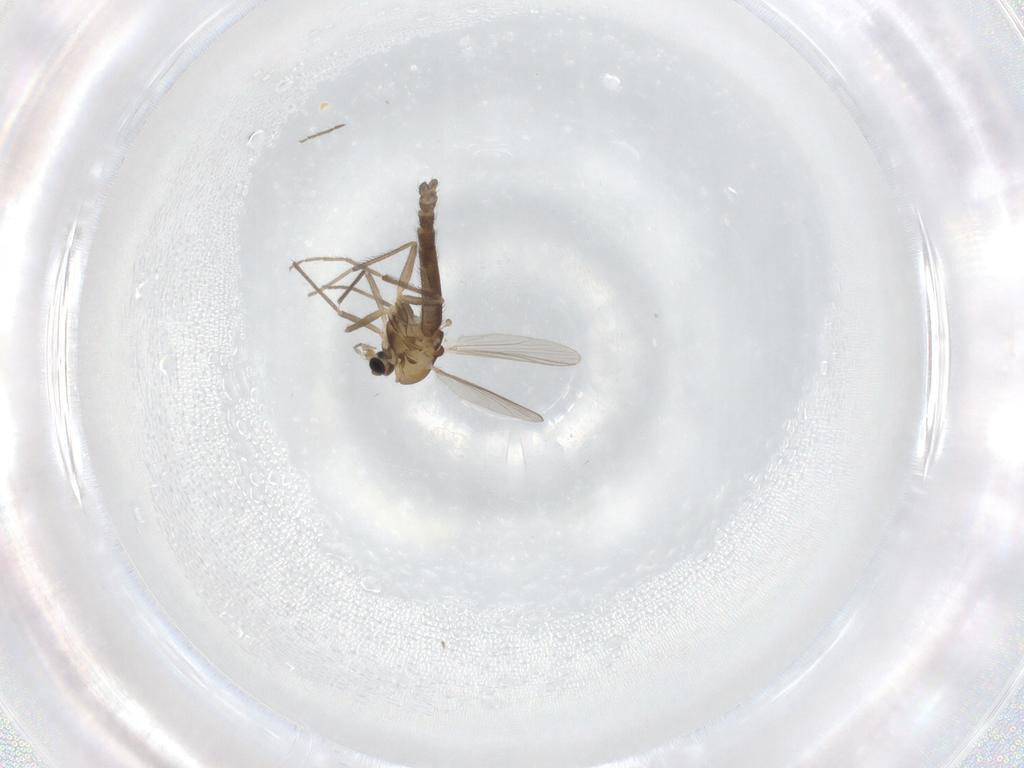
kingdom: Animalia
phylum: Arthropoda
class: Insecta
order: Diptera
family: Chironomidae
